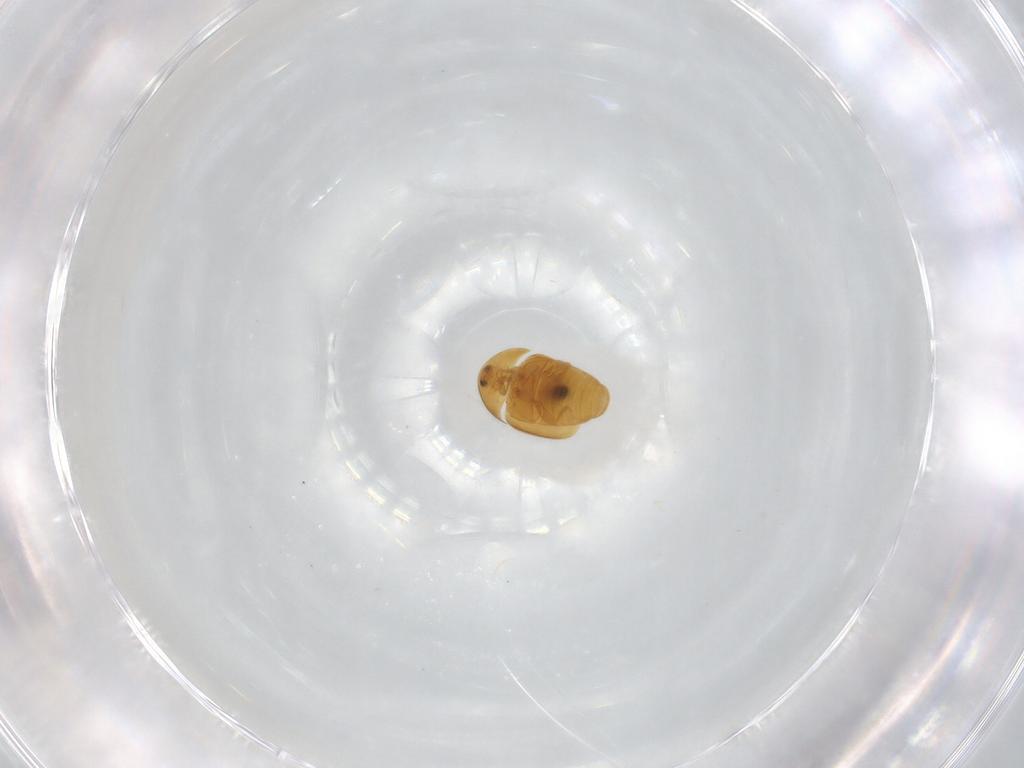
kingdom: Animalia
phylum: Arthropoda
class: Insecta
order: Coleoptera
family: Corylophidae
